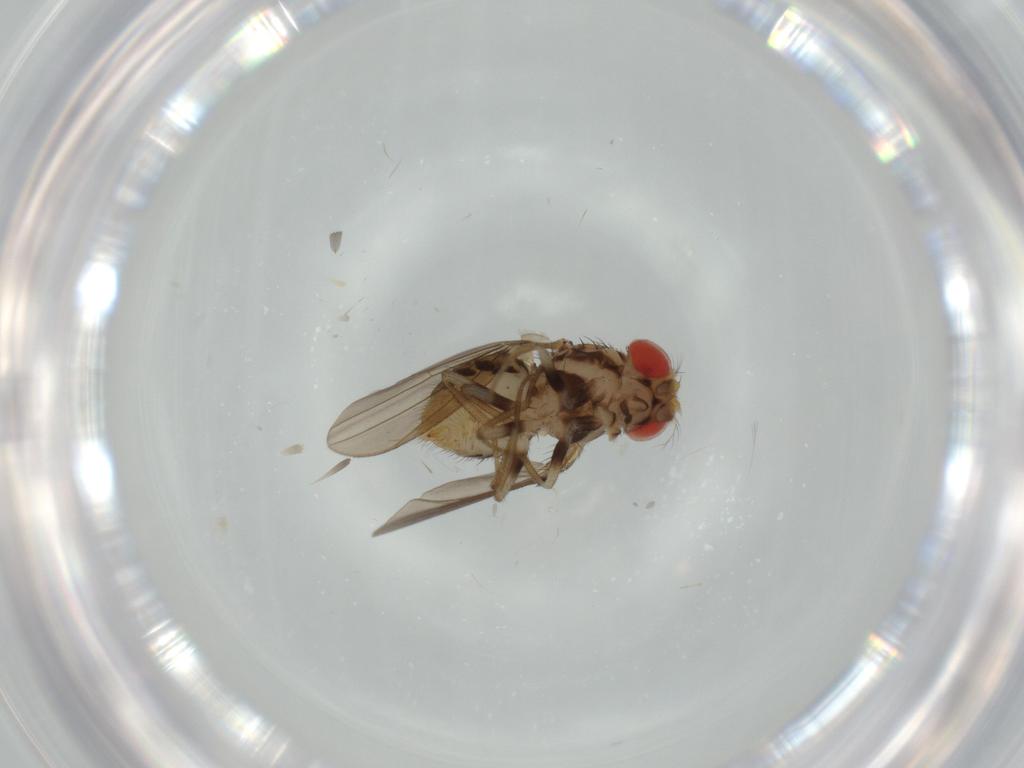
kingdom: Animalia
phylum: Arthropoda
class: Insecta
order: Diptera
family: Drosophilidae
